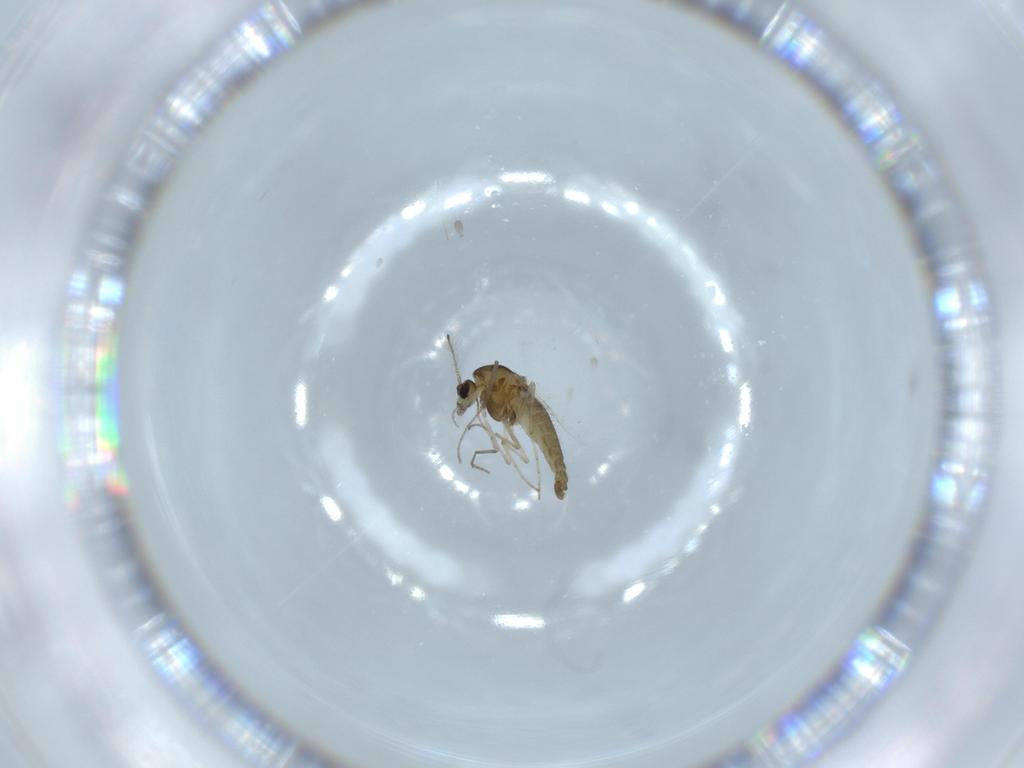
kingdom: Animalia
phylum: Arthropoda
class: Insecta
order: Diptera
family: Chironomidae
